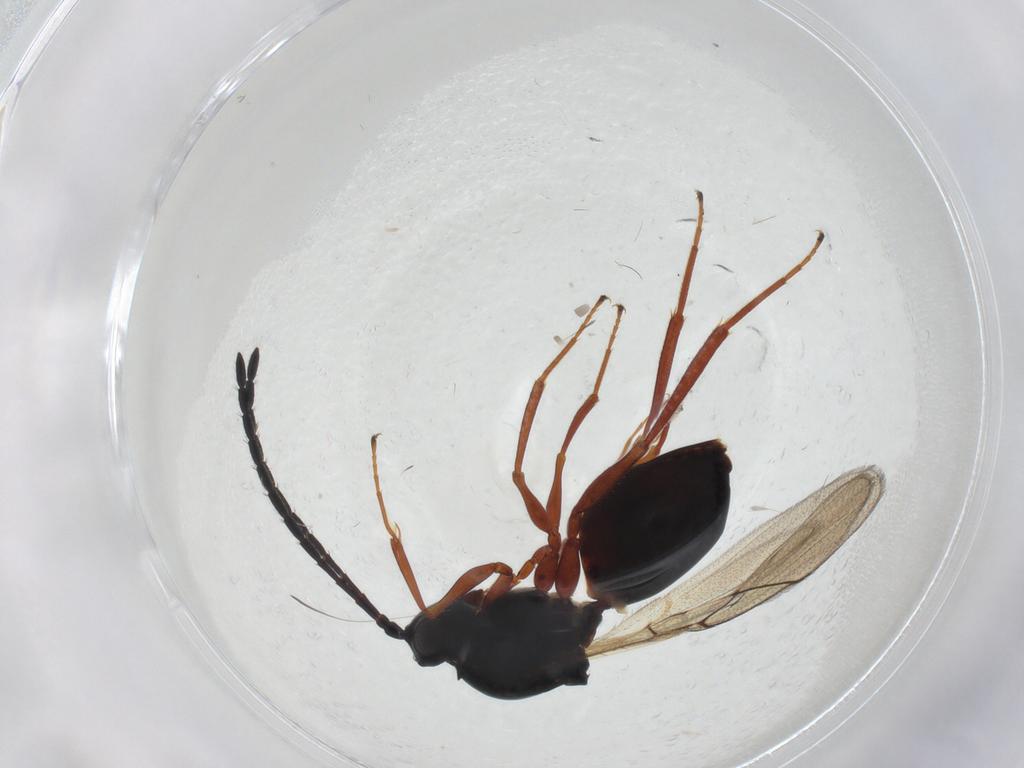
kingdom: Animalia
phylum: Arthropoda
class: Insecta
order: Hymenoptera
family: Figitidae
